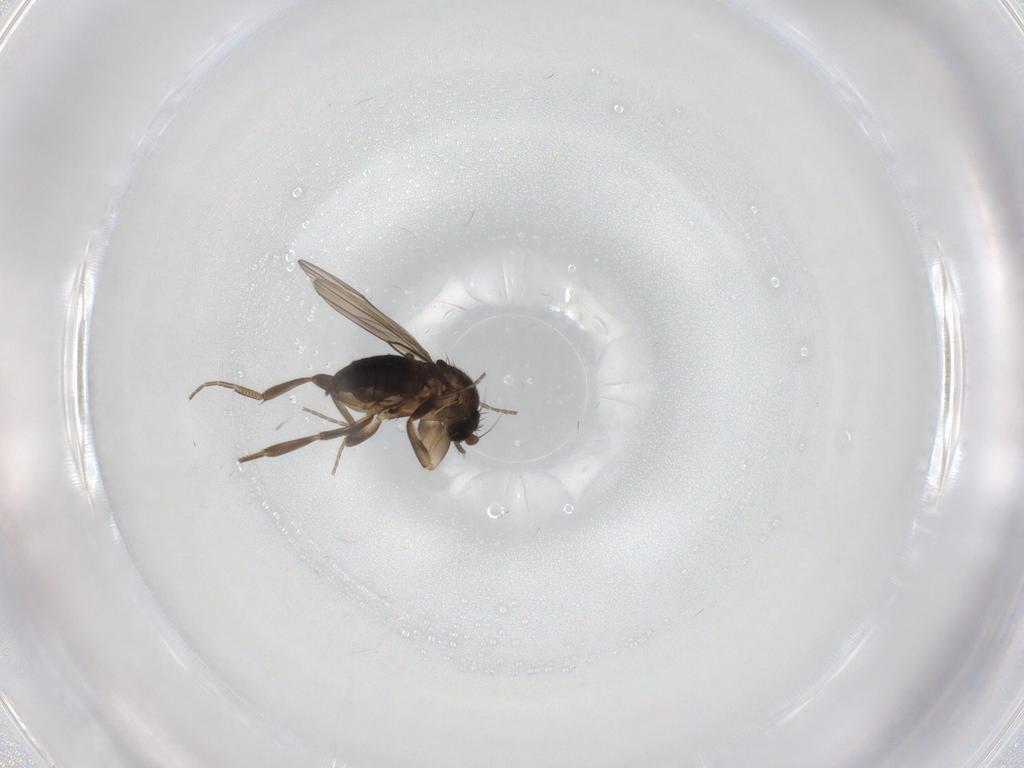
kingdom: Animalia
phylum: Arthropoda
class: Insecta
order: Diptera
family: Phoridae
